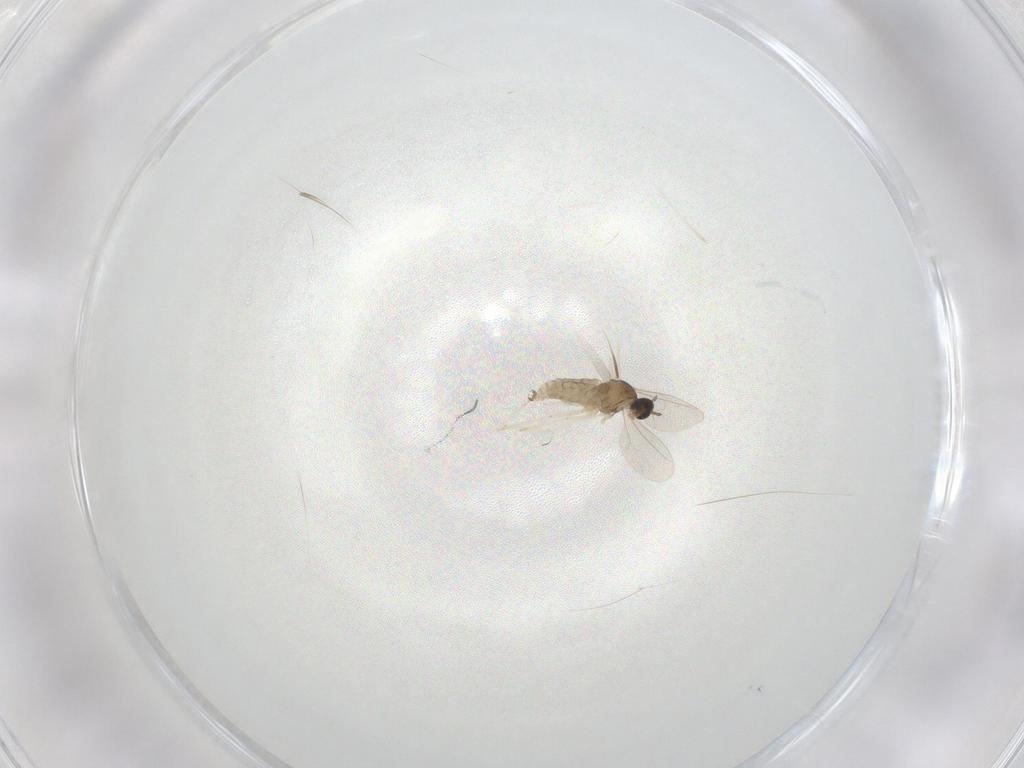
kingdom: Animalia
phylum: Arthropoda
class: Insecta
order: Diptera
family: Cecidomyiidae
